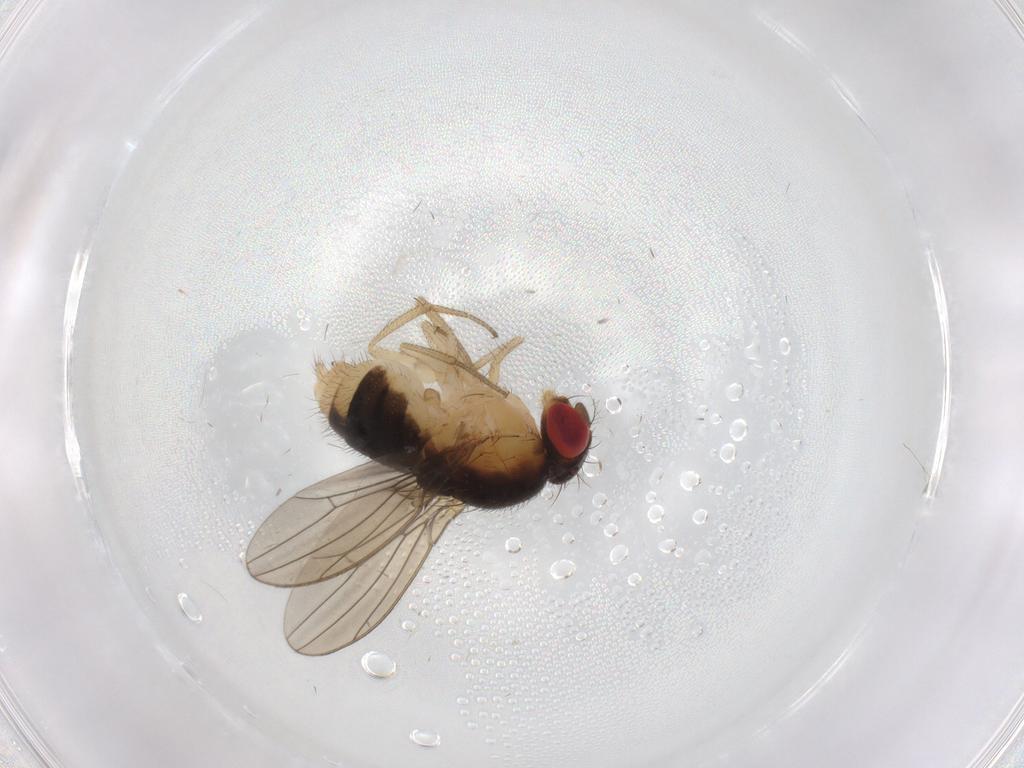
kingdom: Animalia
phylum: Arthropoda
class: Insecta
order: Diptera
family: Drosophilidae
